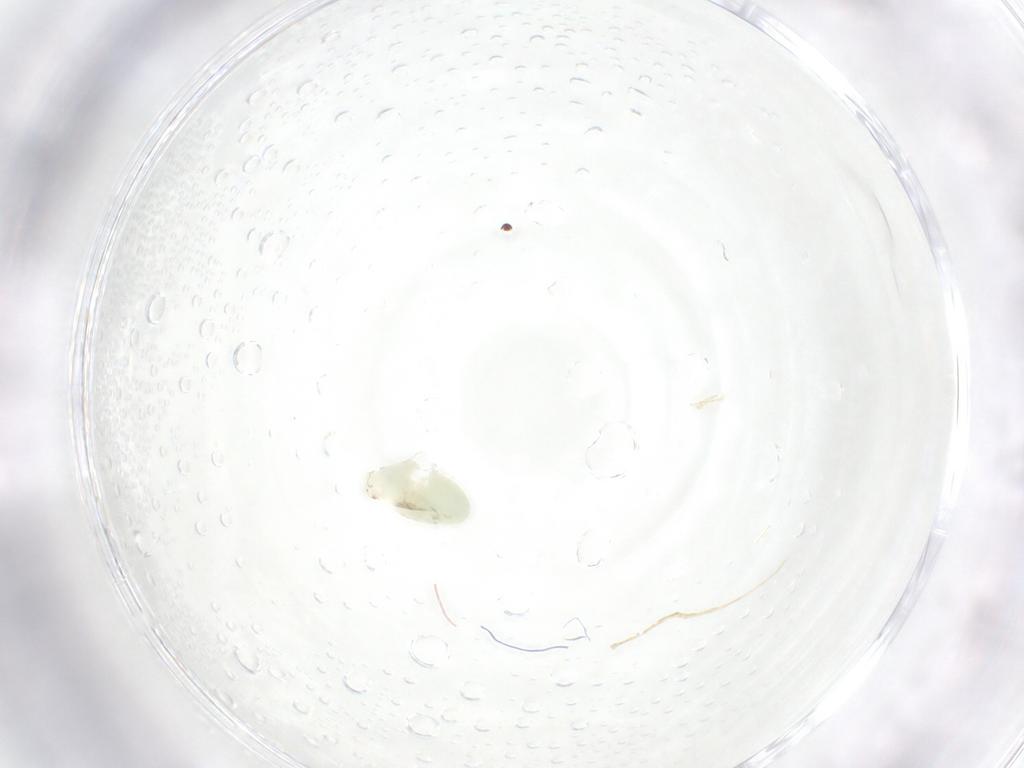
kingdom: Animalia
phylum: Arthropoda
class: Insecta
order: Hymenoptera
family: Dryinidae
